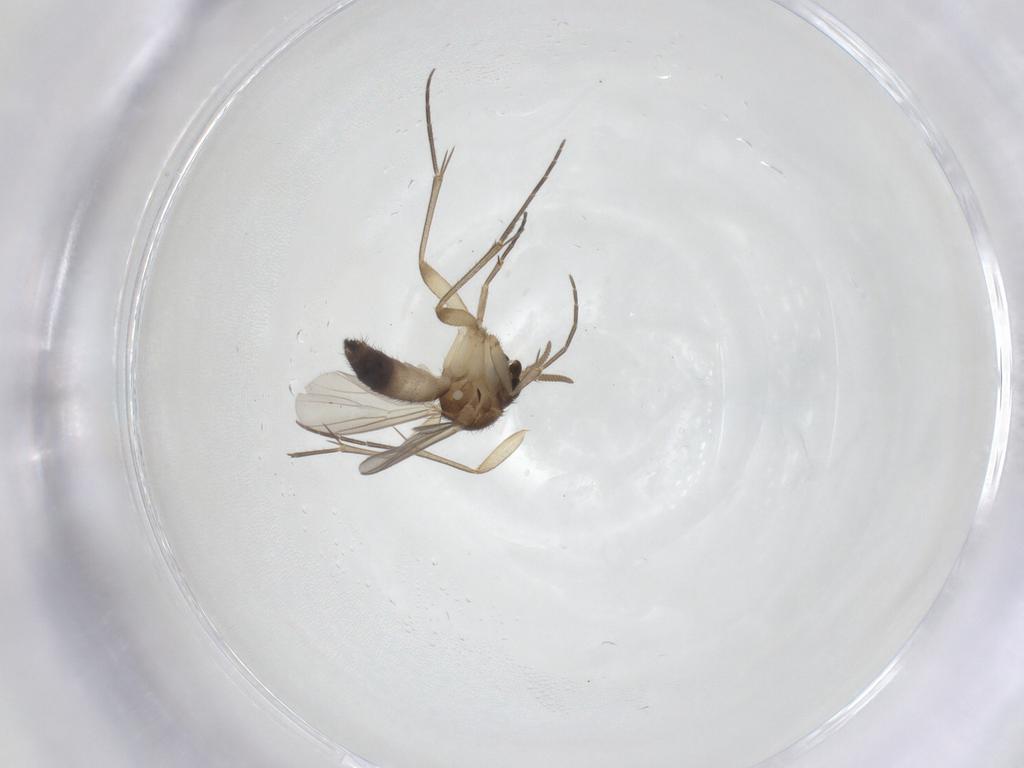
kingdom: Animalia
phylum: Arthropoda
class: Insecta
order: Diptera
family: Mycetophilidae
